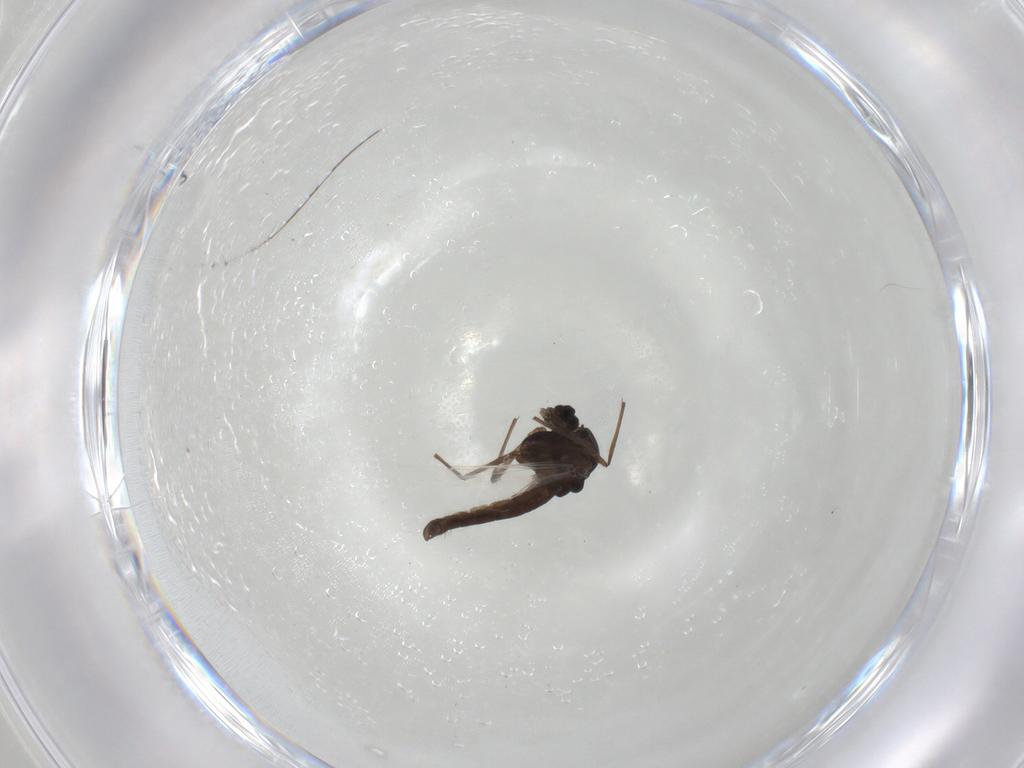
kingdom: Animalia
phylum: Arthropoda
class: Insecta
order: Diptera
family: Chironomidae
